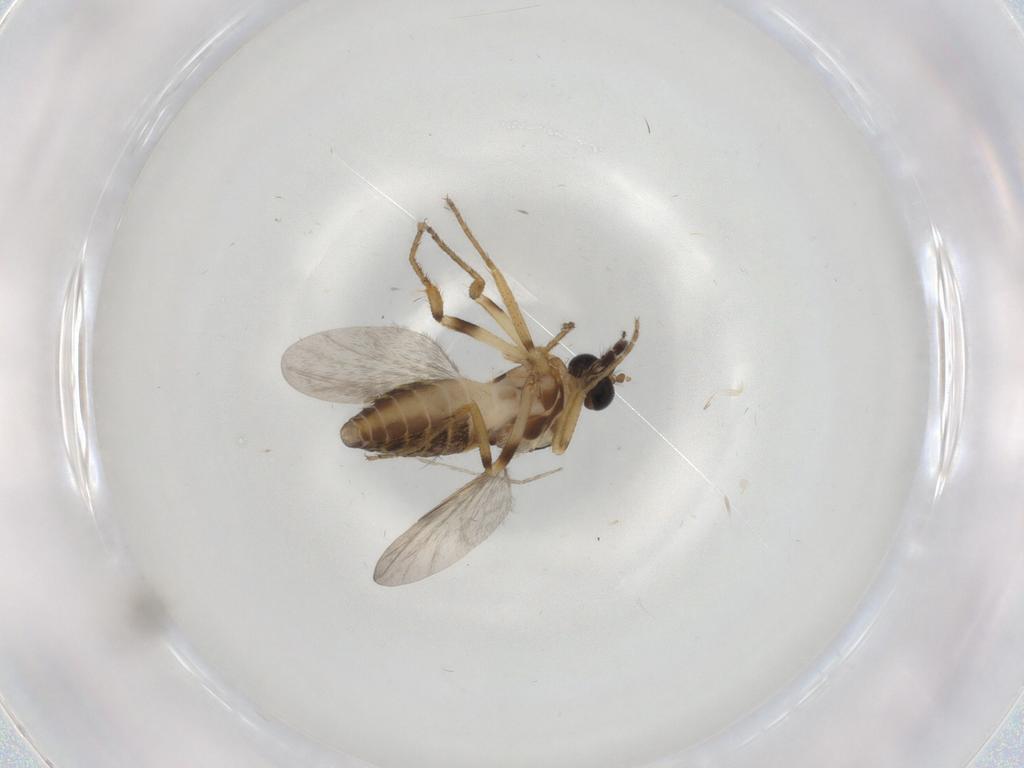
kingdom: Animalia
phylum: Arthropoda
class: Insecta
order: Diptera
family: Ceratopogonidae
